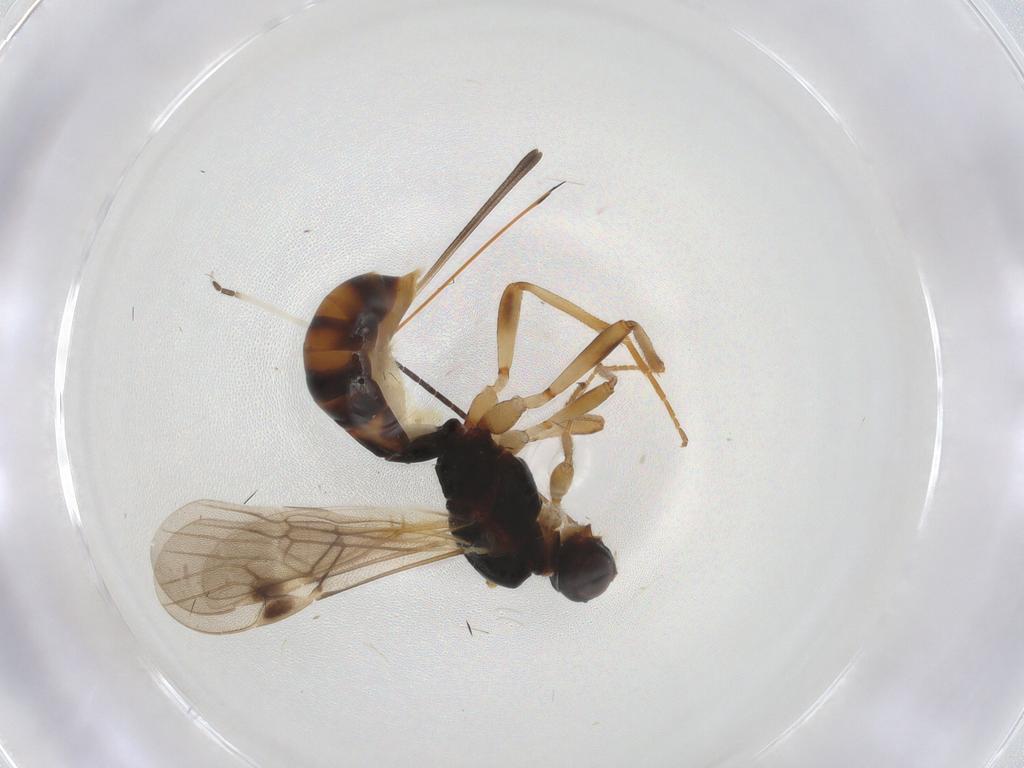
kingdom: Animalia
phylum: Arthropoda
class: Insecta
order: Hymenoptera
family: Braconidae
